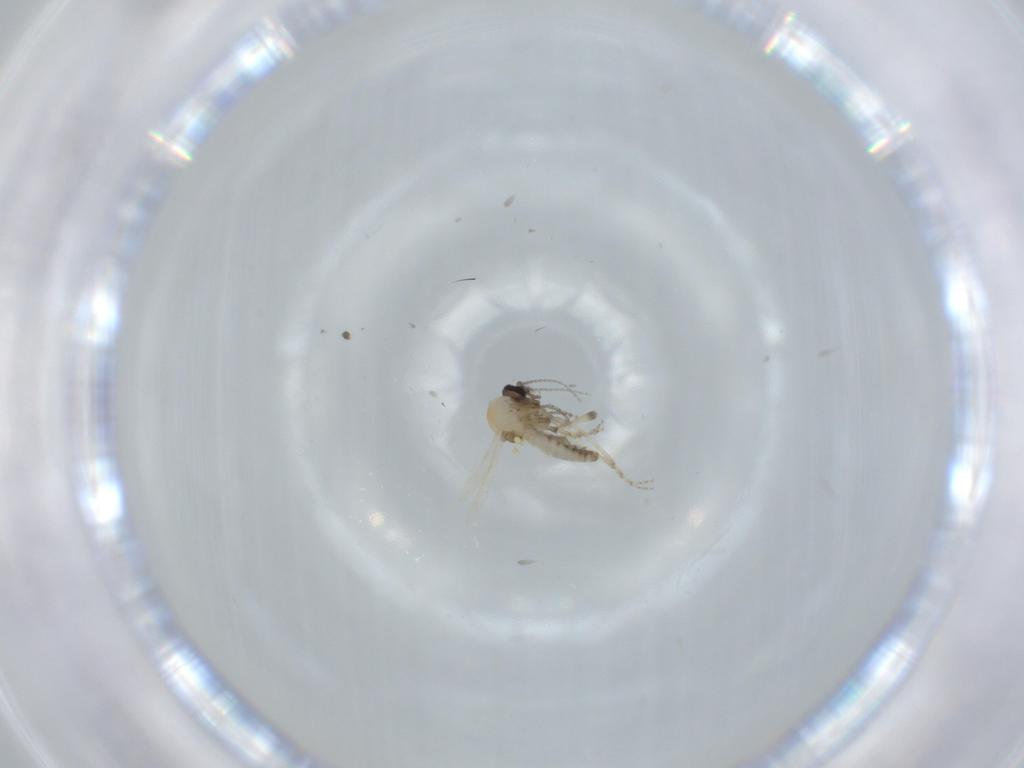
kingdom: Animalia
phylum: Arthropoda
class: Insecta
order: Diptera
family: Ceratopogonidae
